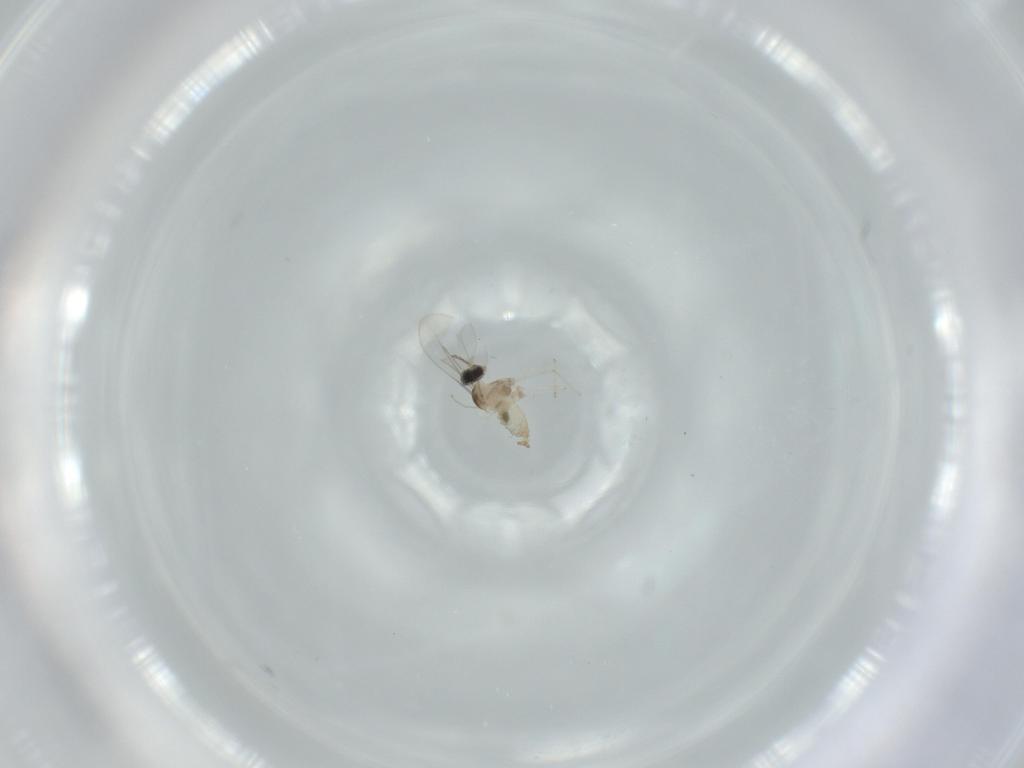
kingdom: Animalia
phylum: Arthropoda
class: Insecta
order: Diptera
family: Cecidomyiidae
